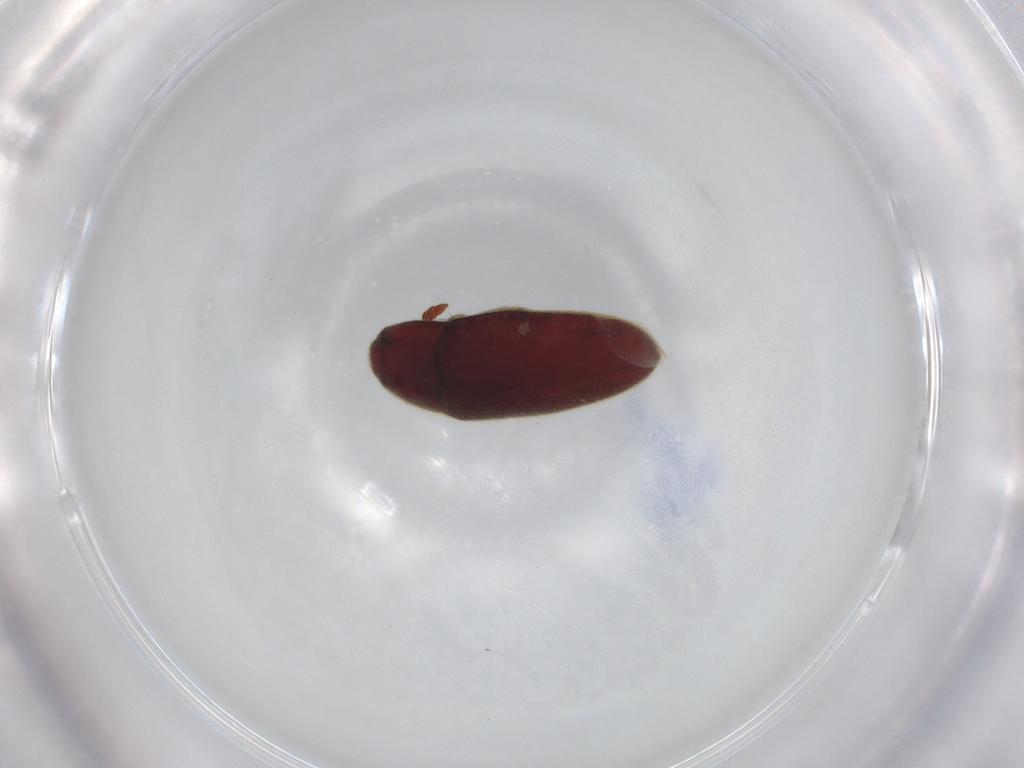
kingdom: Animalia
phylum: Arthropoda
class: Insecta
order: Coleoptera
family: Throscidae
